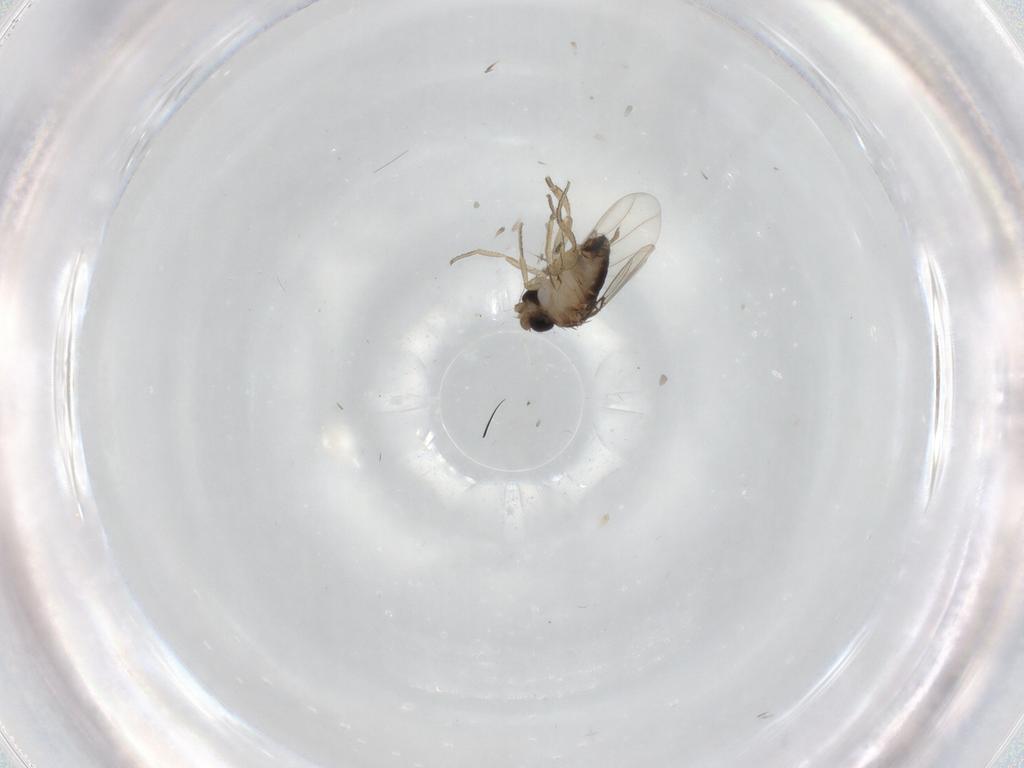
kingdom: Animalia
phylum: Arthropoda
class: Insecta
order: Diptera
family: Cecidomyiidae
